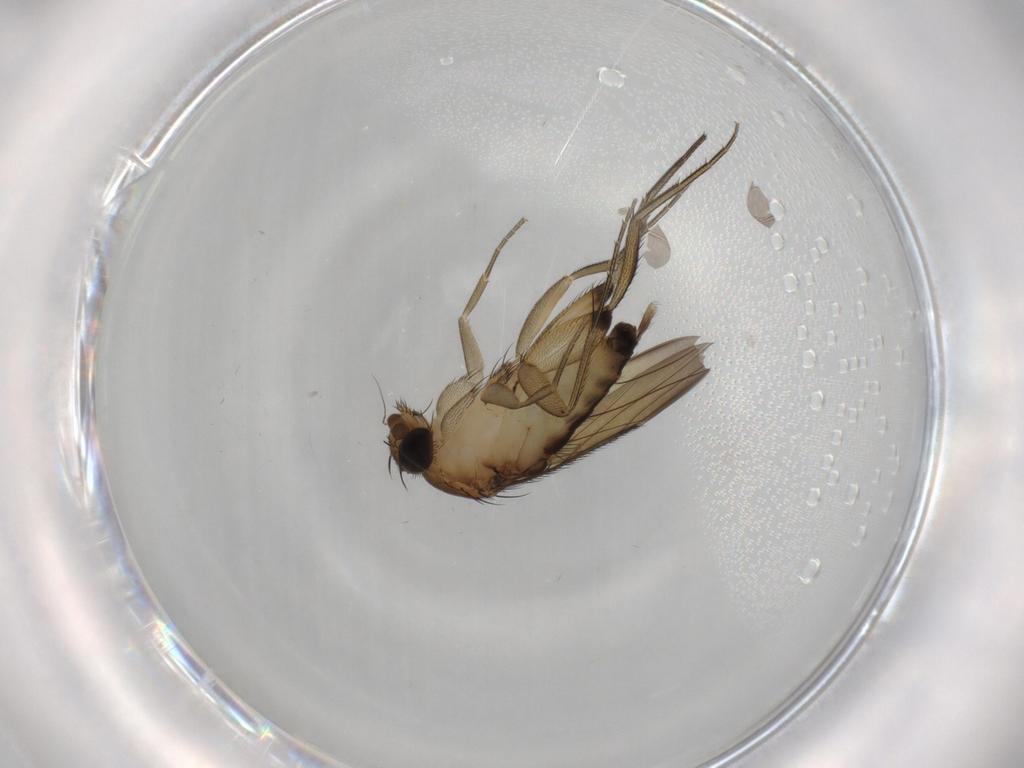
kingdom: Animalia
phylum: Arthropoda
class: Insecta
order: Diptera
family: Phoridae
